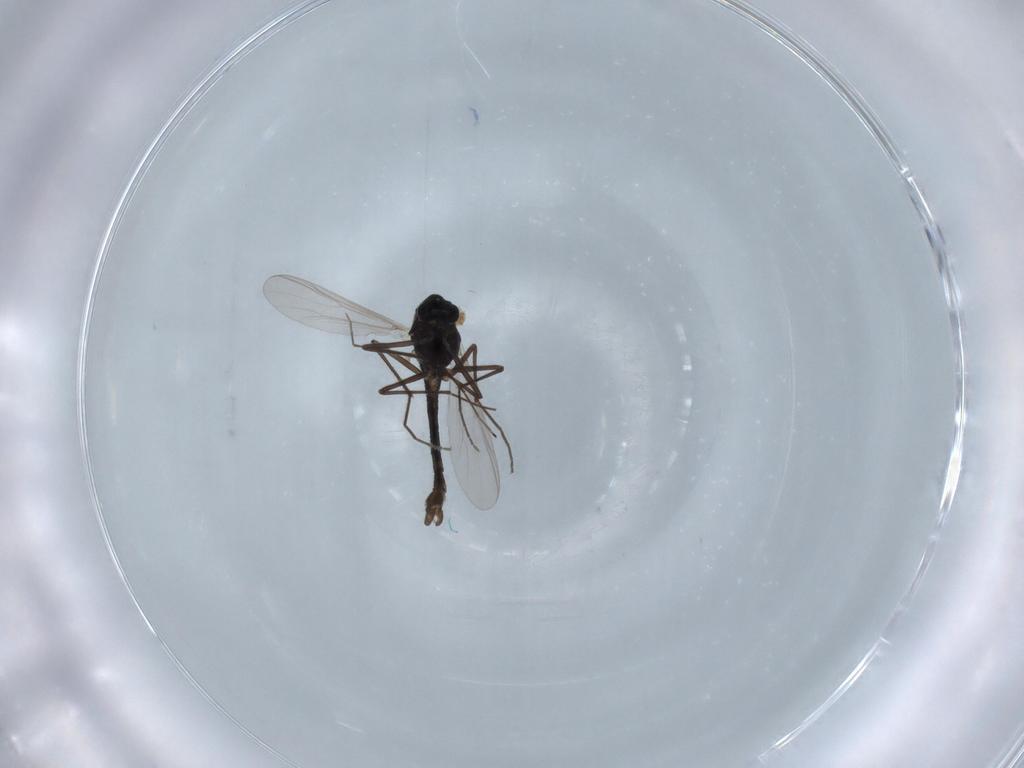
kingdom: Animalia
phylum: Arthropoda
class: Insecta
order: Diptera
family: Chironomidae
